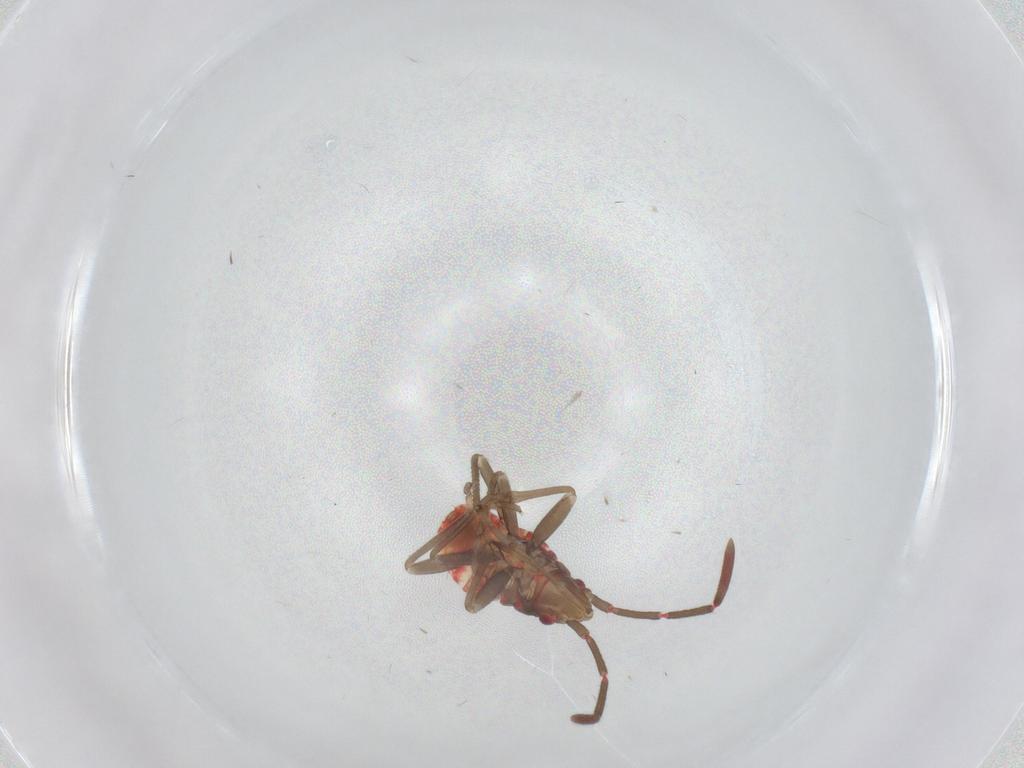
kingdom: Animalia
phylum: Arthropoda
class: Insecta
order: Hemiptera
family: Rhyparochromidae
